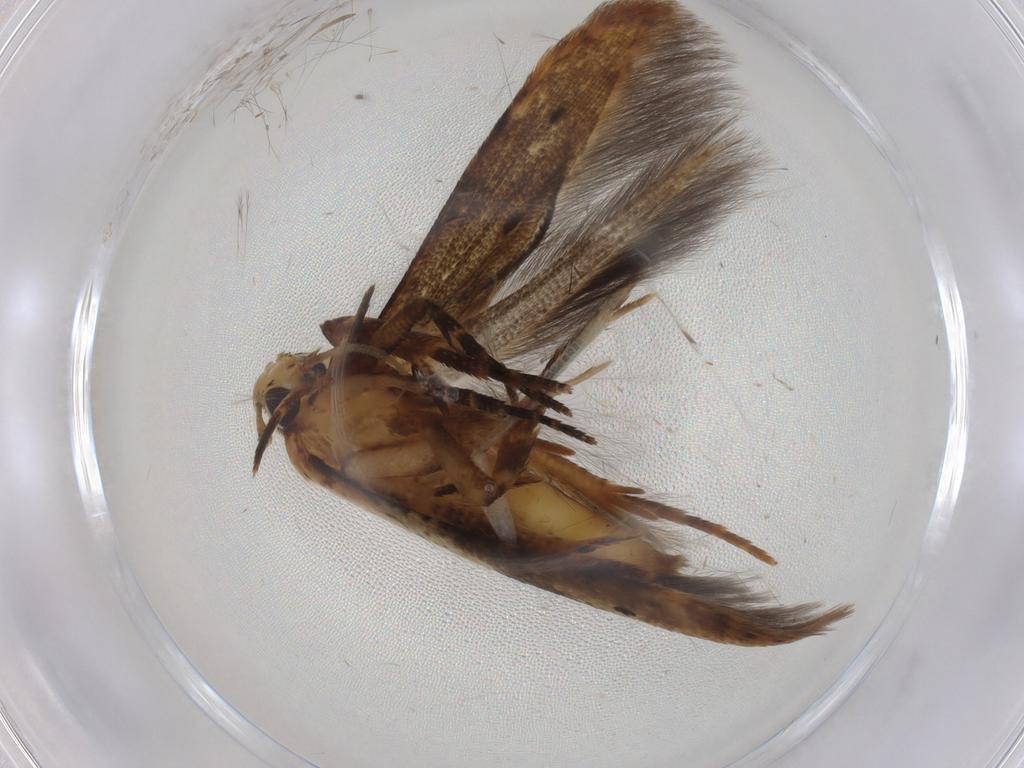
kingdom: Animalia
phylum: Arthropoda
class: Insecta
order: Lepidoptera
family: Momphidae
